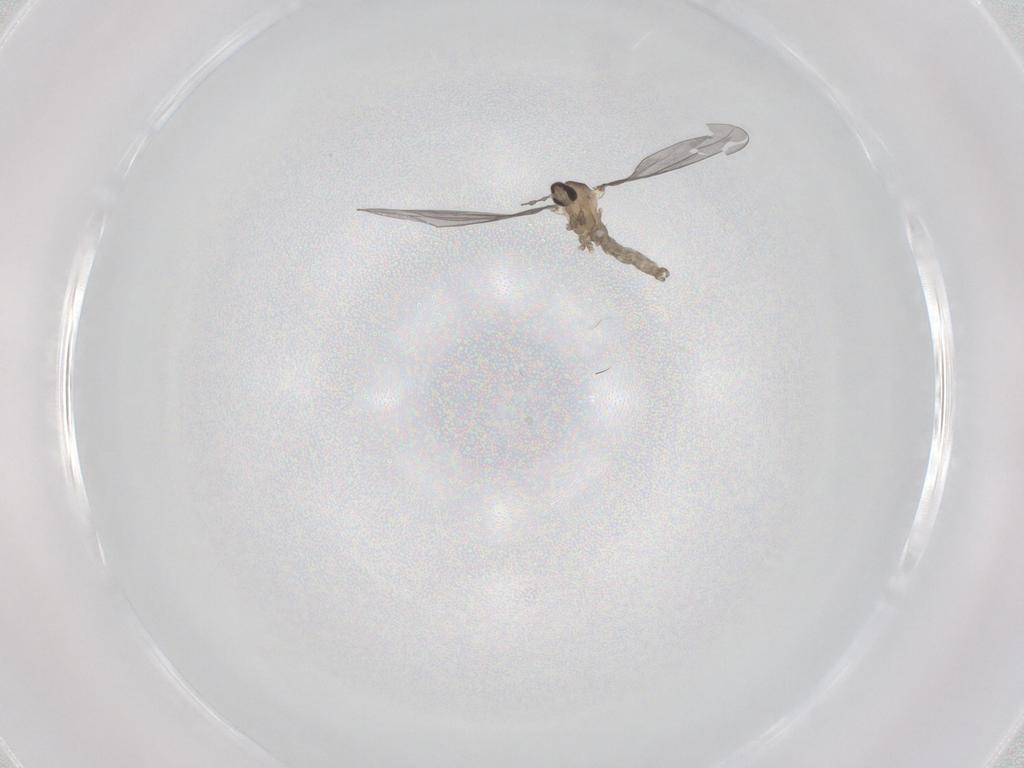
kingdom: Animalia
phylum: Arthropoda
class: Insecta
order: Diptera
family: Cecidomyiidae
